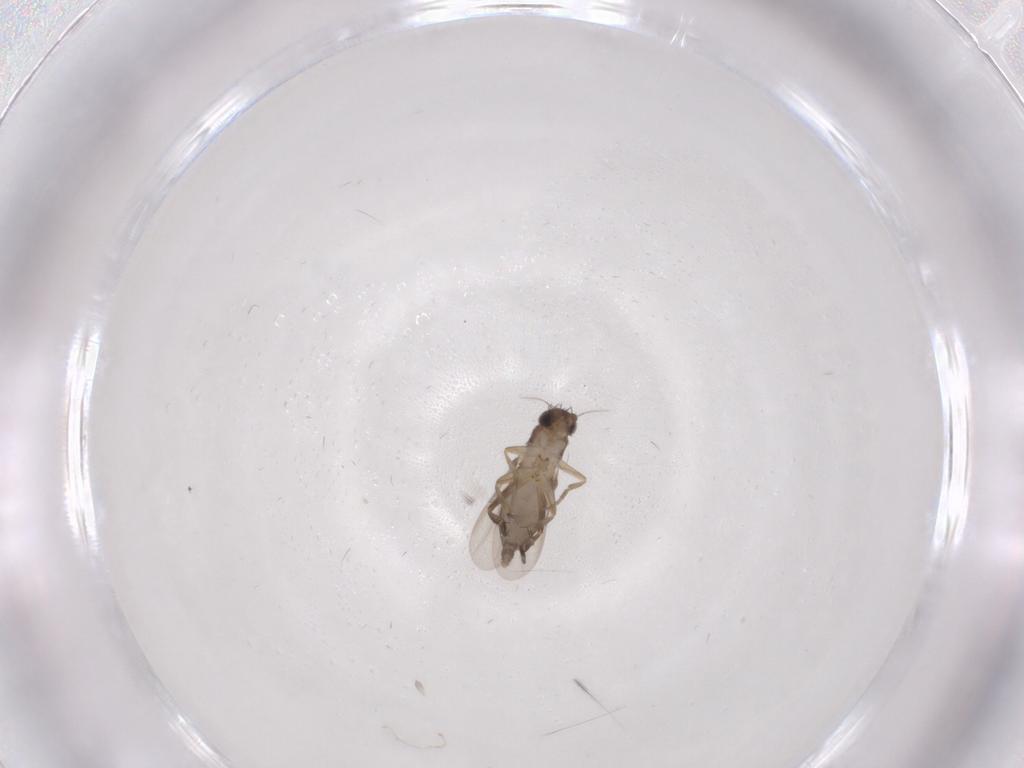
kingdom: Animalia
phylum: Arthropoda
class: Insecta
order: Diptera
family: Phoridae
